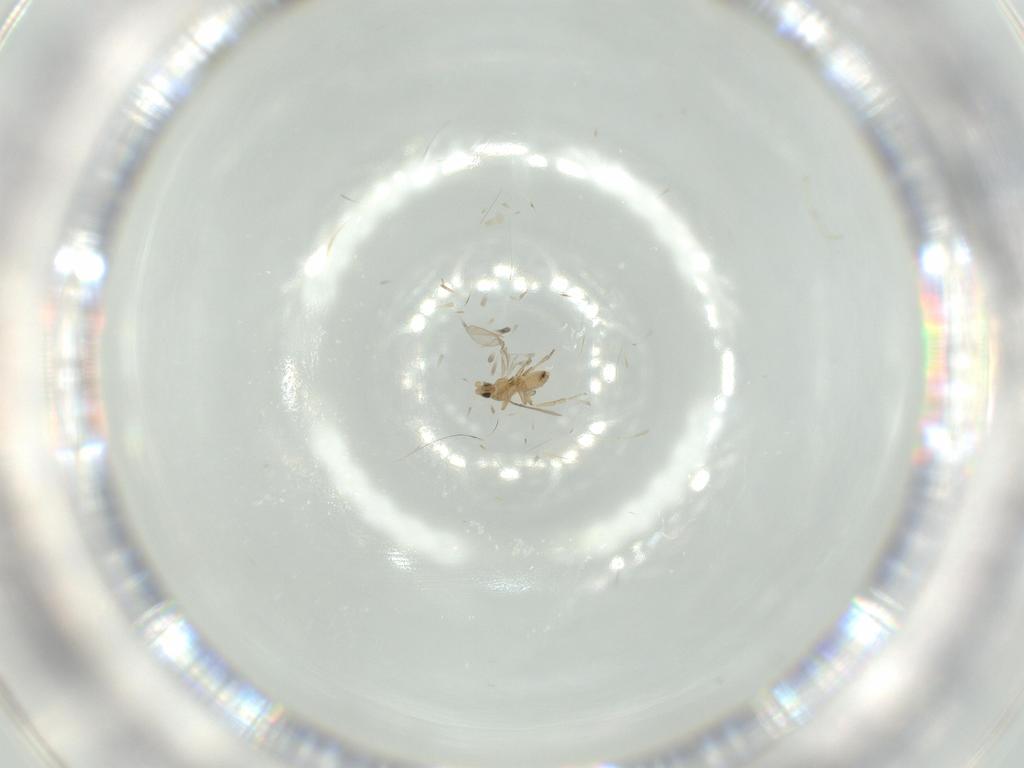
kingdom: Animalia
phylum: Arthropoda
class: Insecta
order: Diptera
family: Chironomidae
